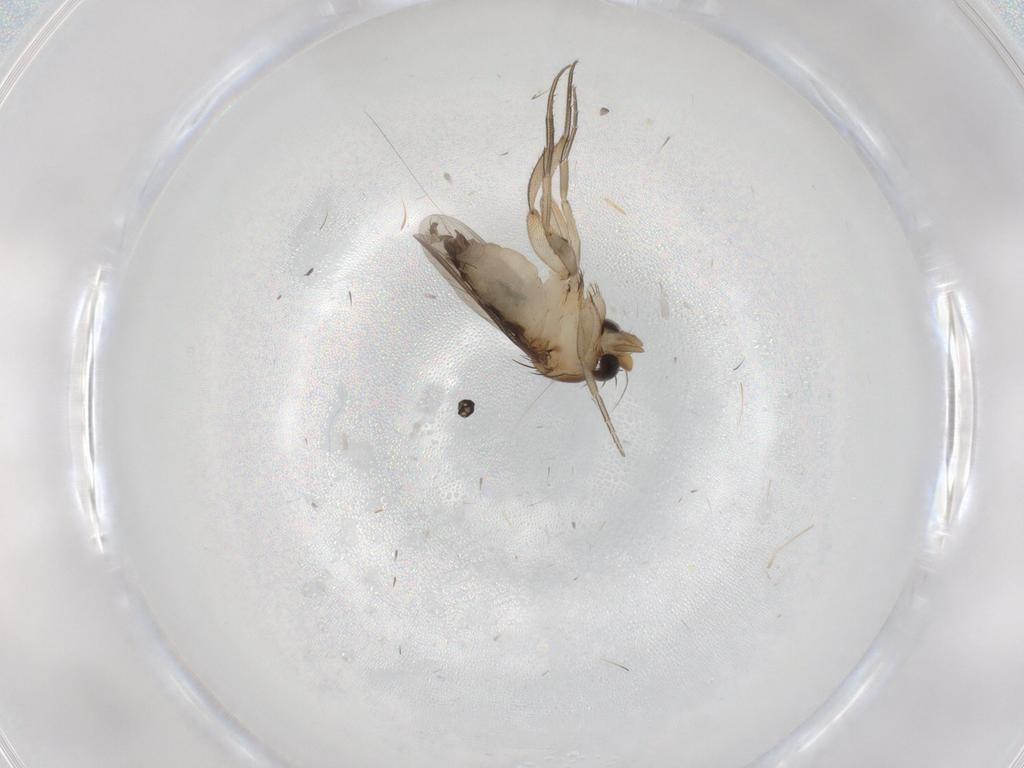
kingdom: Animalia
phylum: Arthropoda
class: Insecta
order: Diptera
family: Phoridae
